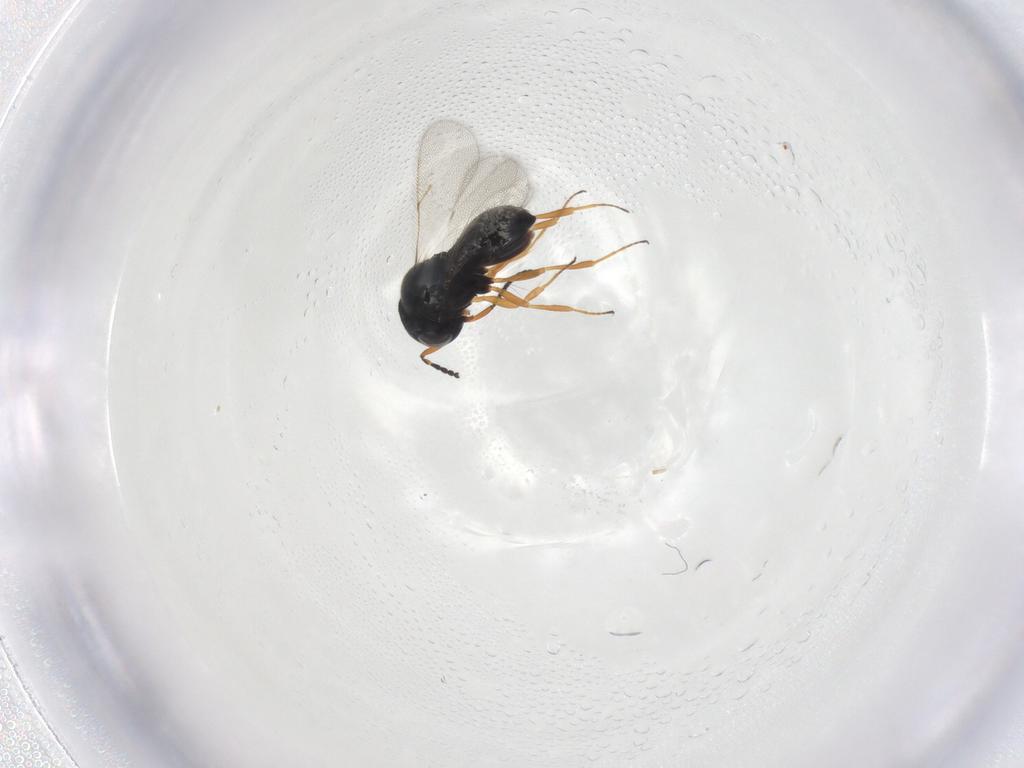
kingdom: Animalia
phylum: Arthropoda
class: Insecta
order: Hymenoptera
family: Scelionidae
